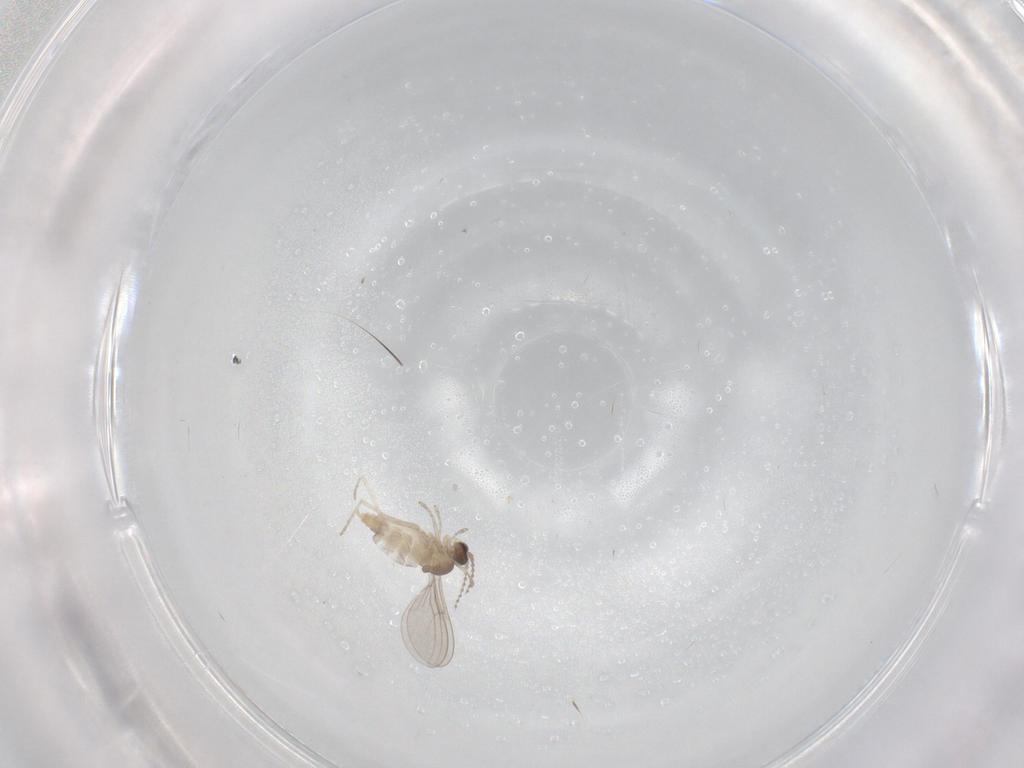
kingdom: Animalia
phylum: Arthropoda
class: Insecta
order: Diptera
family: Cecidomyiidae
